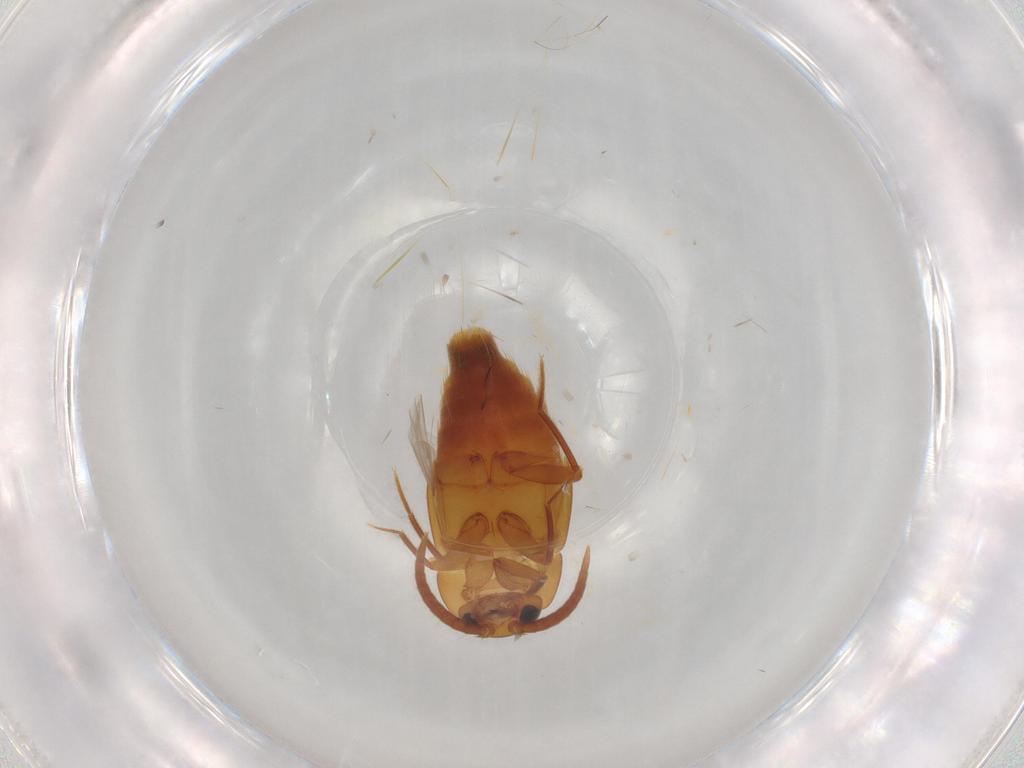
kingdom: Animalia
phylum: Arthropoda
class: Insecta
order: Coleoptera
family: Staphylinidae
